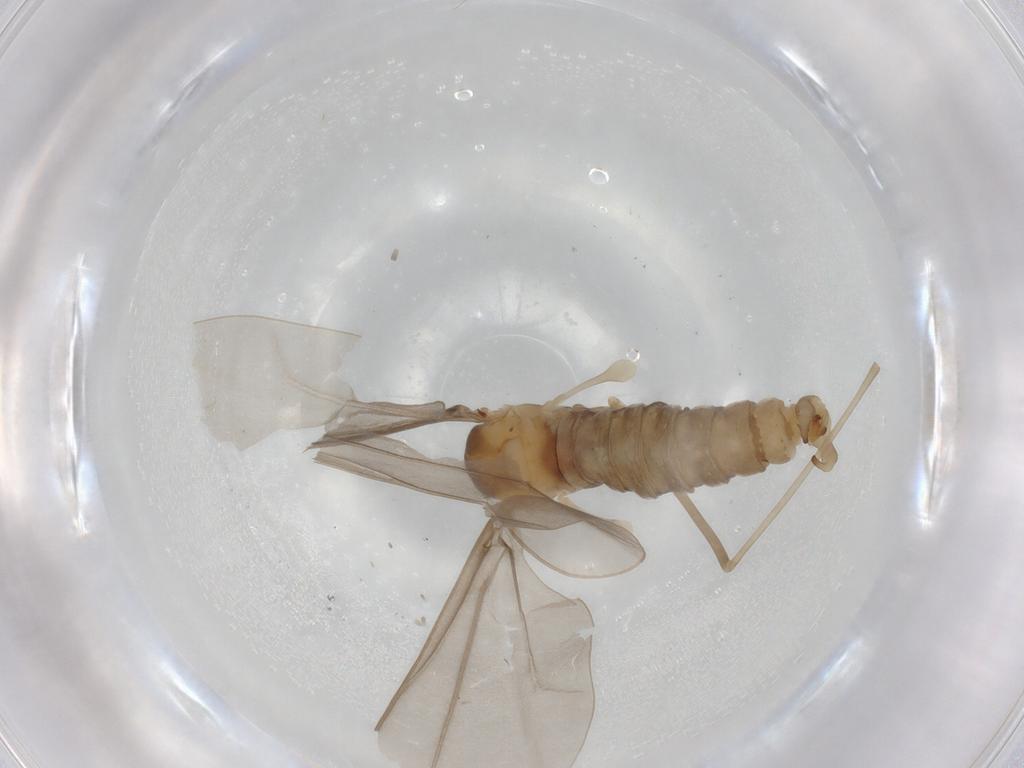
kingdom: Animalia
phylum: Arthropoda
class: Insecta
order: Diptera
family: Cecidomyiidae
